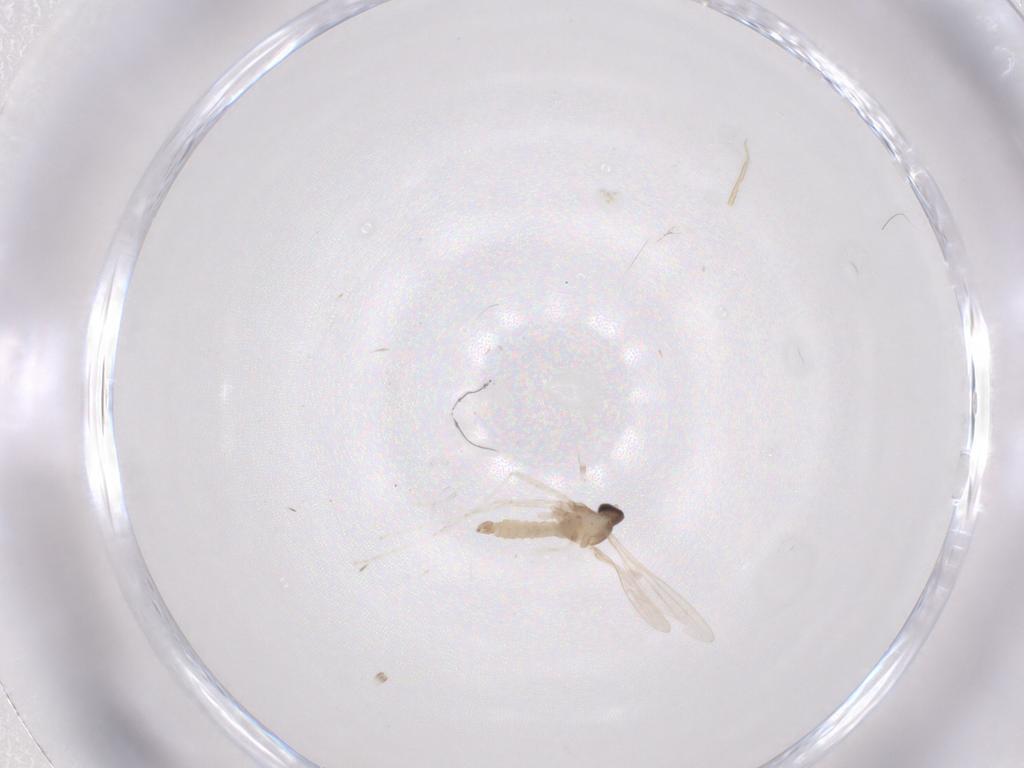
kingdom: Animalia
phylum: Arthropoda
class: Insecta
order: Diptera
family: Cecidomyiidae
